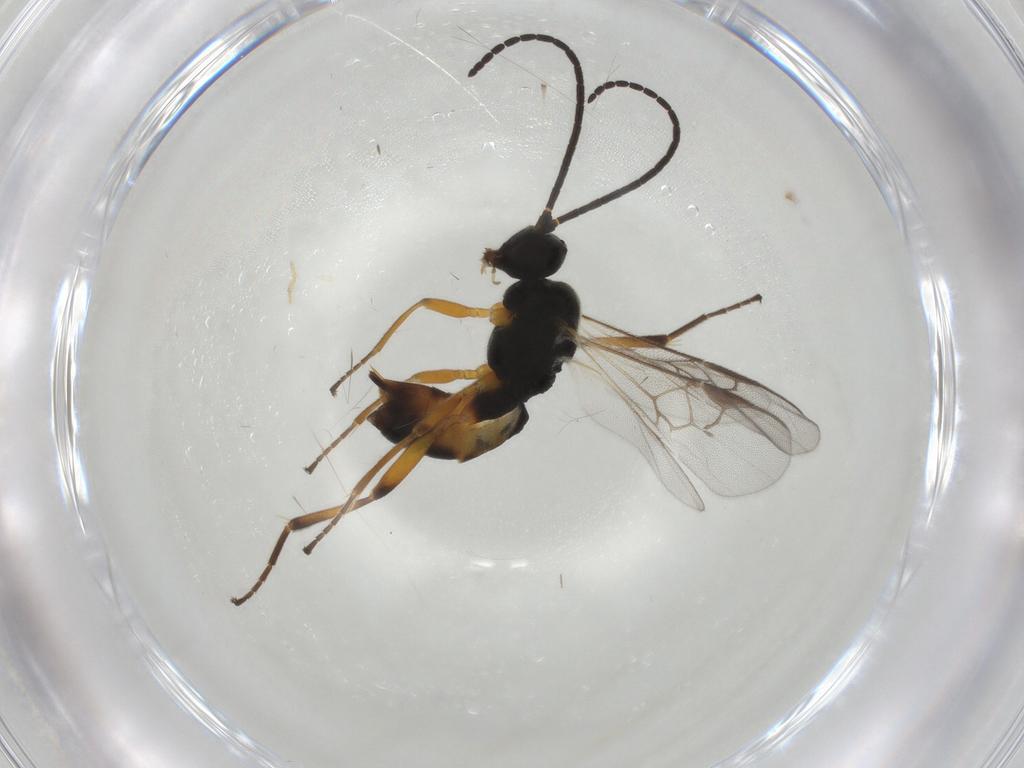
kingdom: Animalia
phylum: Arthropoda
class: Insecta
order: Hymenoptera
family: Braconidae
